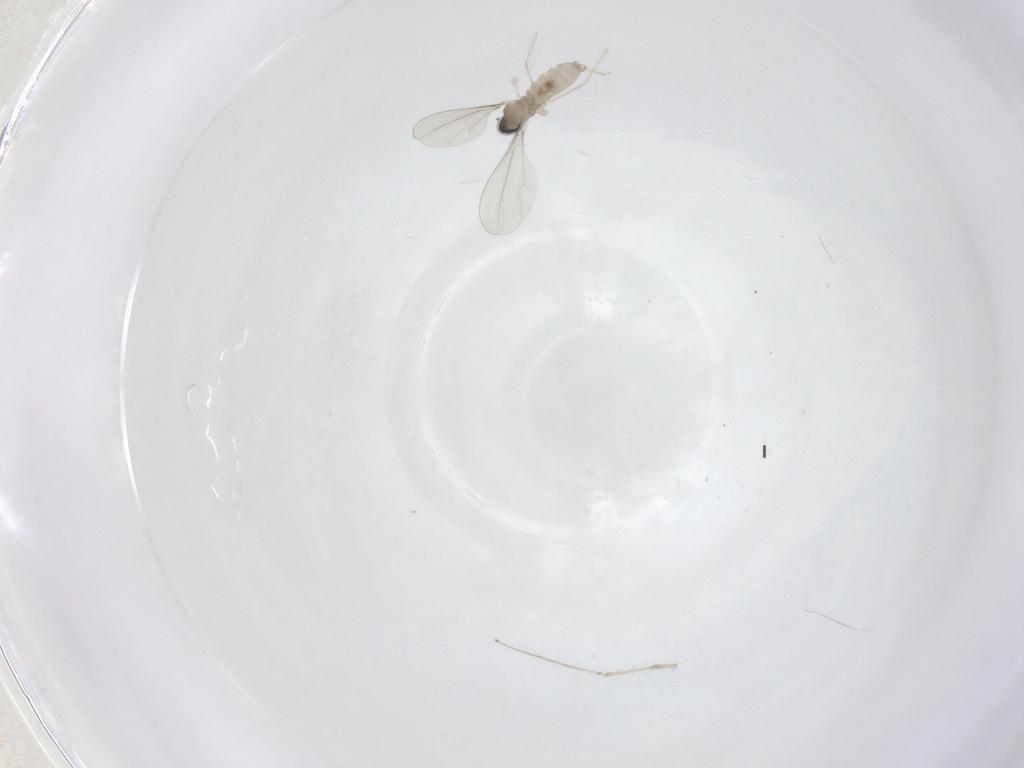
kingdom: Animalia
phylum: Arthropoda
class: Insecta
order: Diptera
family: Cecidomyiidae
